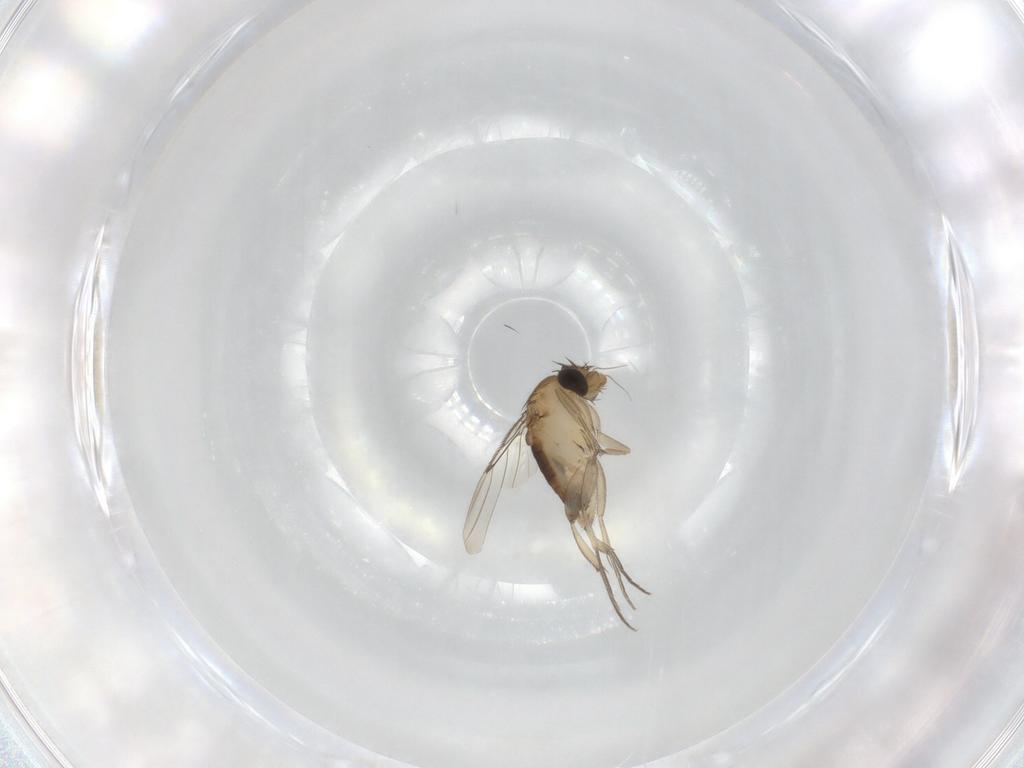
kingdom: Animalia
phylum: Arthropoda
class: Insecta
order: Diptera
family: Phoridae
